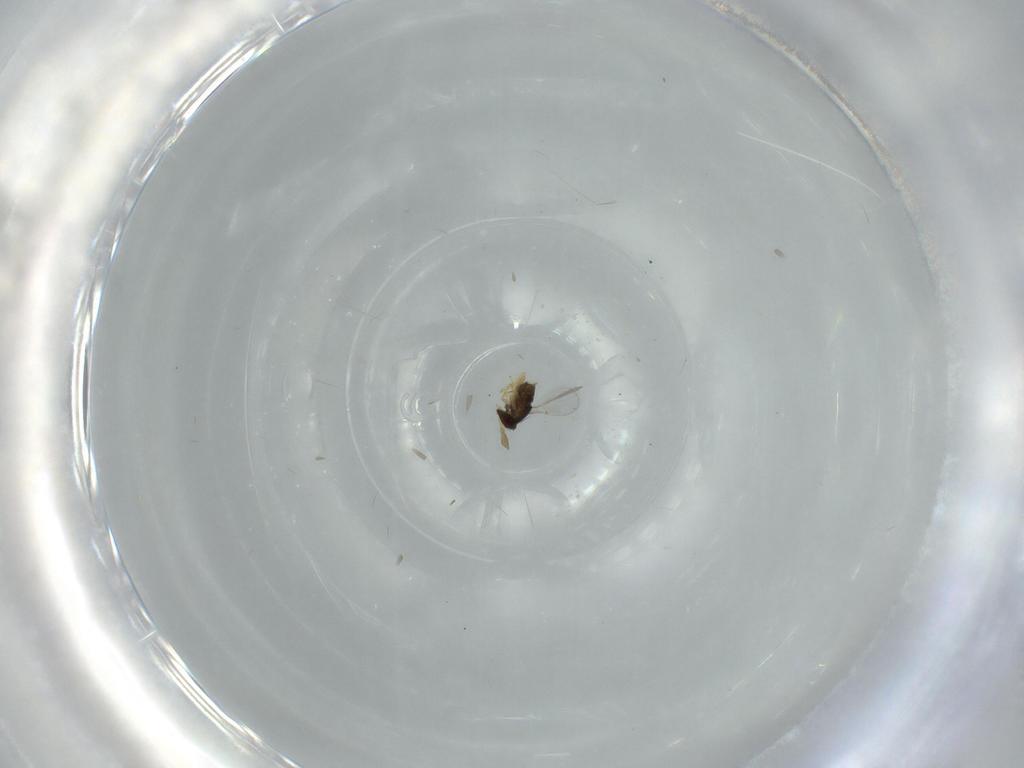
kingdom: Animalia
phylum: Arthropoda
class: Insecta
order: Hymenoptera
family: Encyrtidae
